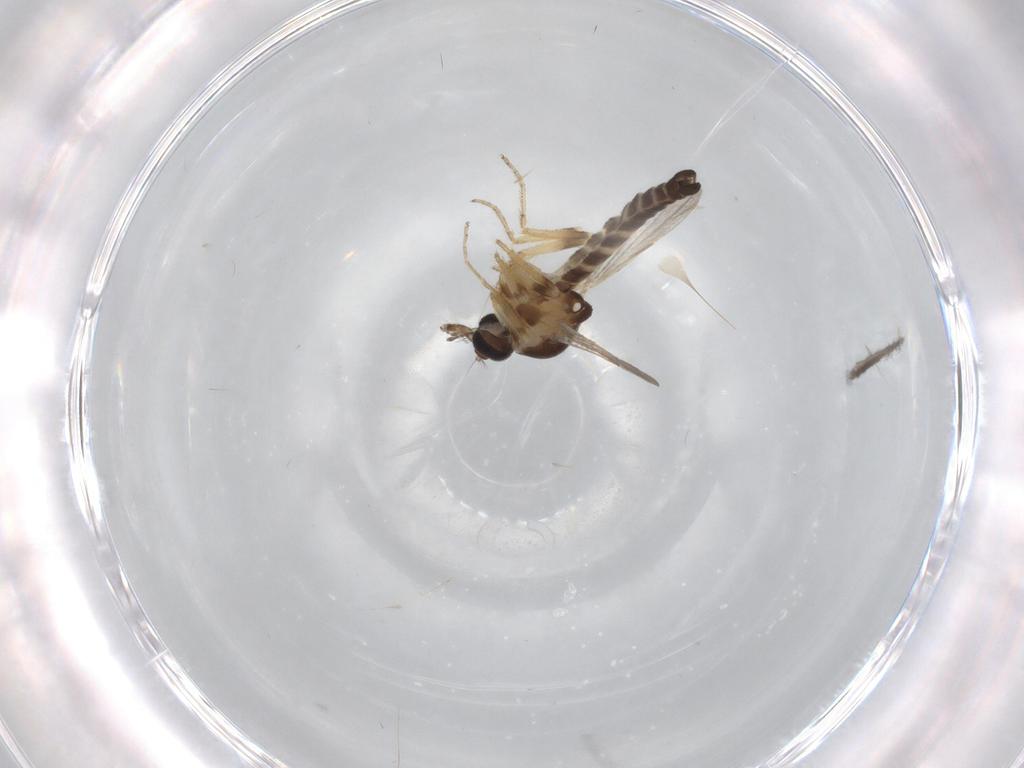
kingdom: Animalia
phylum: Arthropoda
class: Insecta
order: Diptera
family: Ceratopogonidae
